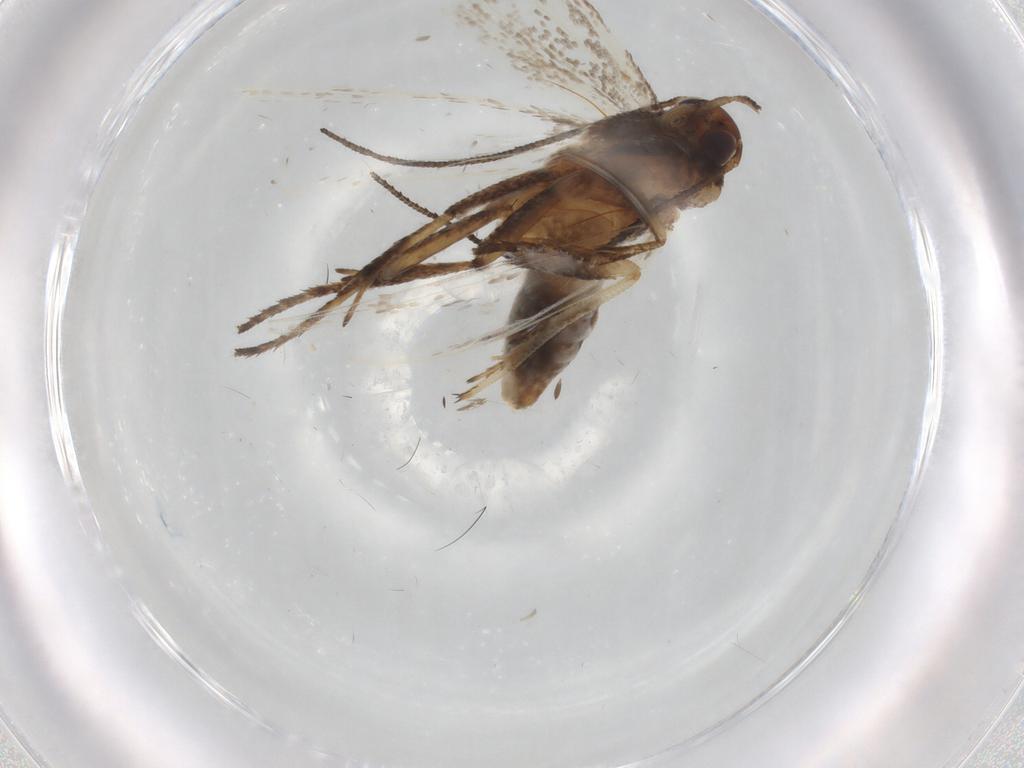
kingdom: Animalia
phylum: Arthropoda
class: Insecta
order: Lepidoptera
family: Gelechiidae
